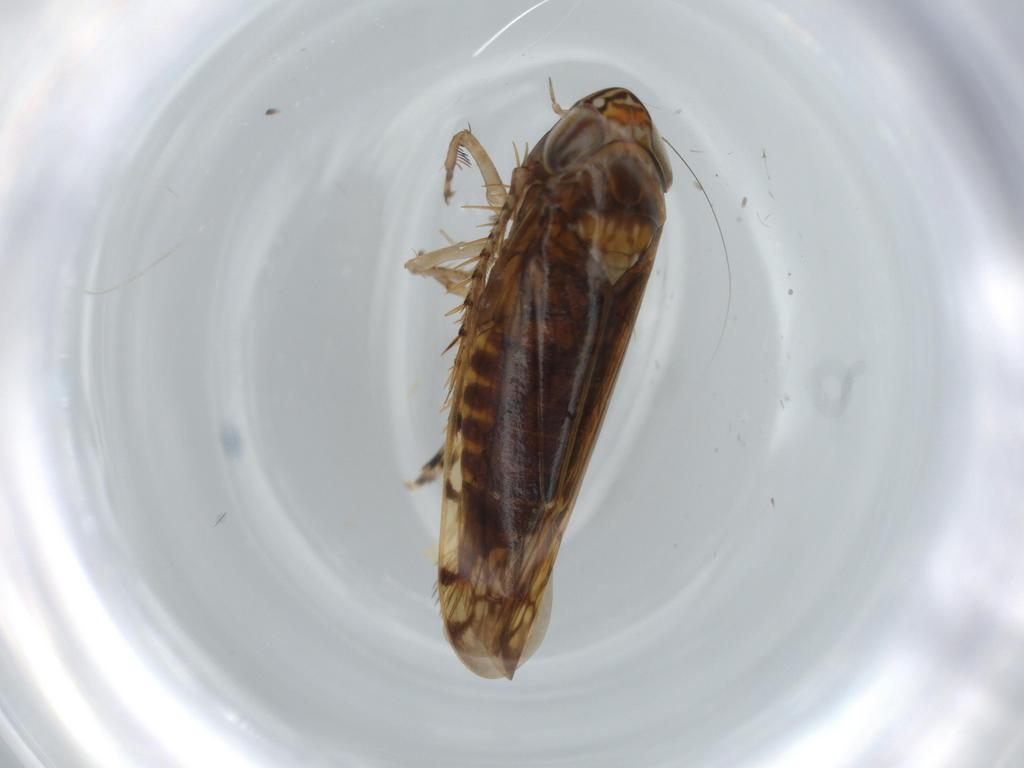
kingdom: Animalia
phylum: Arthropoda
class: Insecta
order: Hemiptera
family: Cicadellidae
